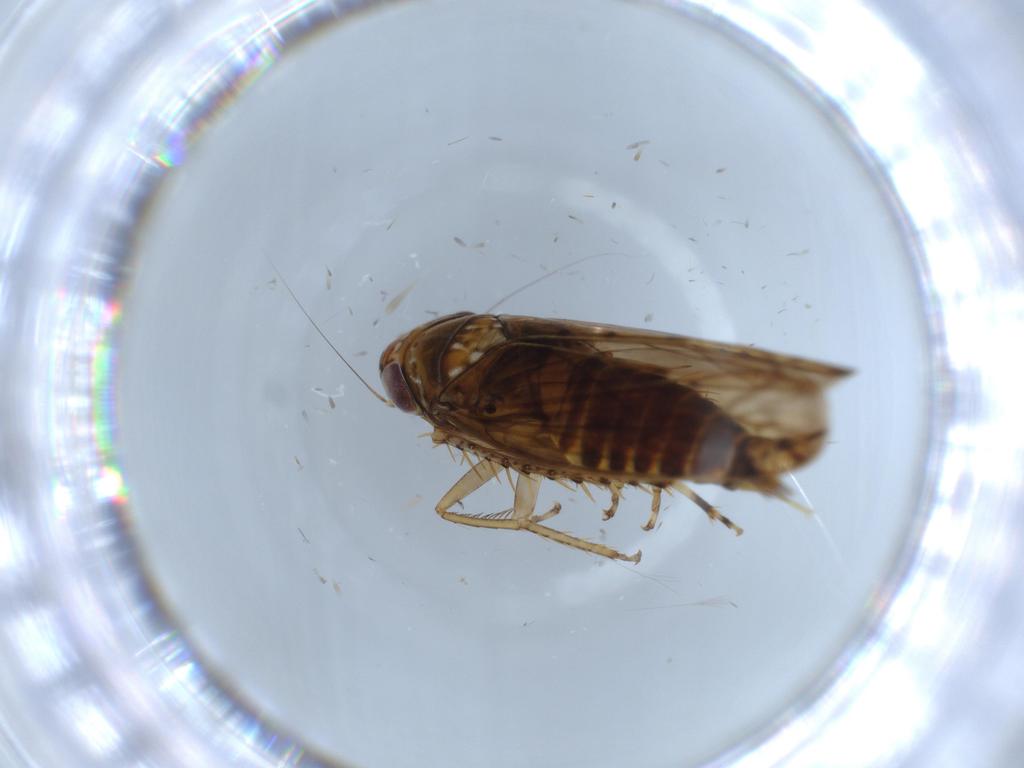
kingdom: Animalia
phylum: Arthropoda
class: Insecta
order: Hemiptera
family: Cicadellidae
